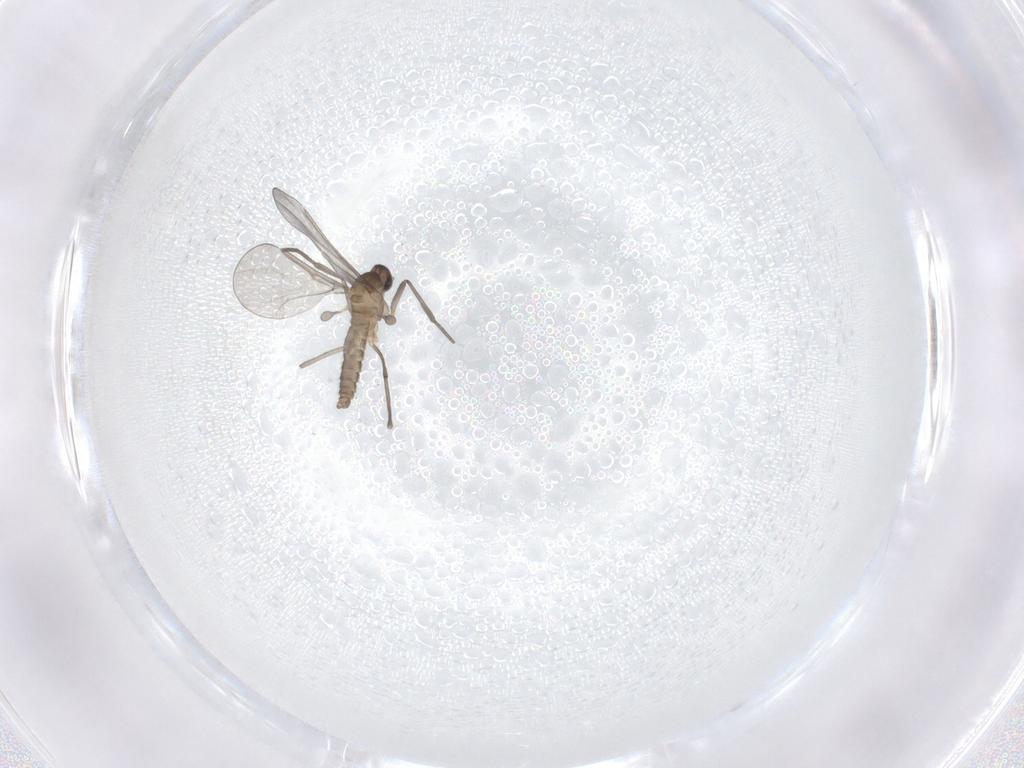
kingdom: Animalia
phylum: Arthropoda
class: Insecta
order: Diptera
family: Cecidomyiidae
